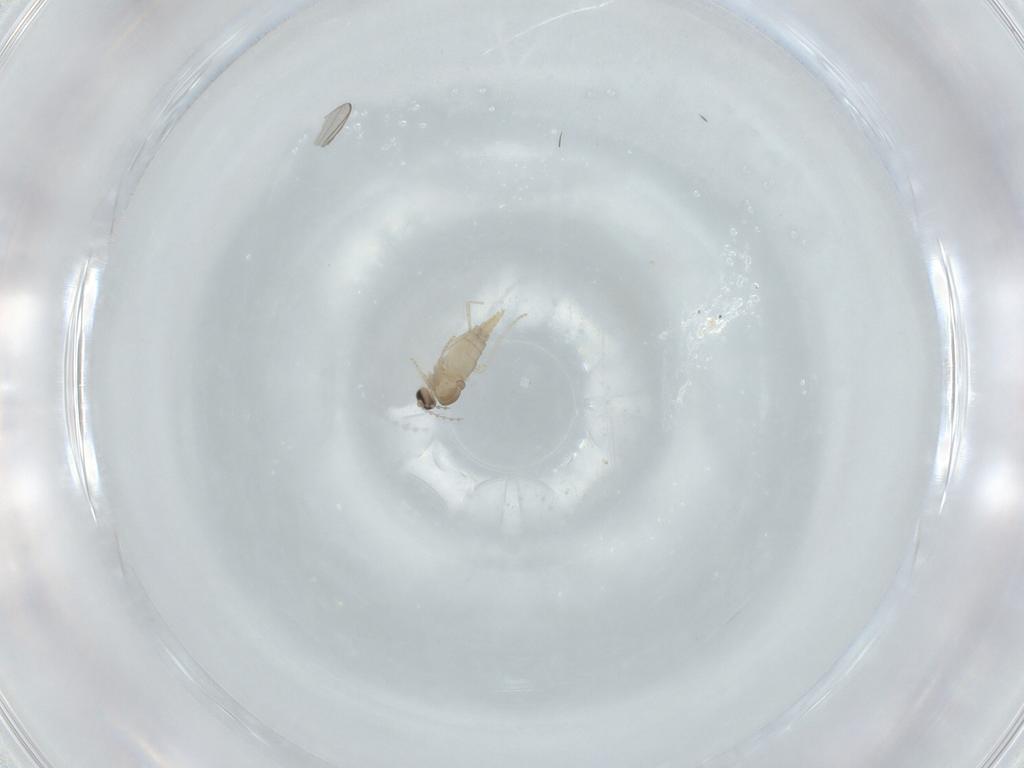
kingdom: Animalia
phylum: Arthropoda
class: Insecta
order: Diptera
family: Cecidomyiidae
